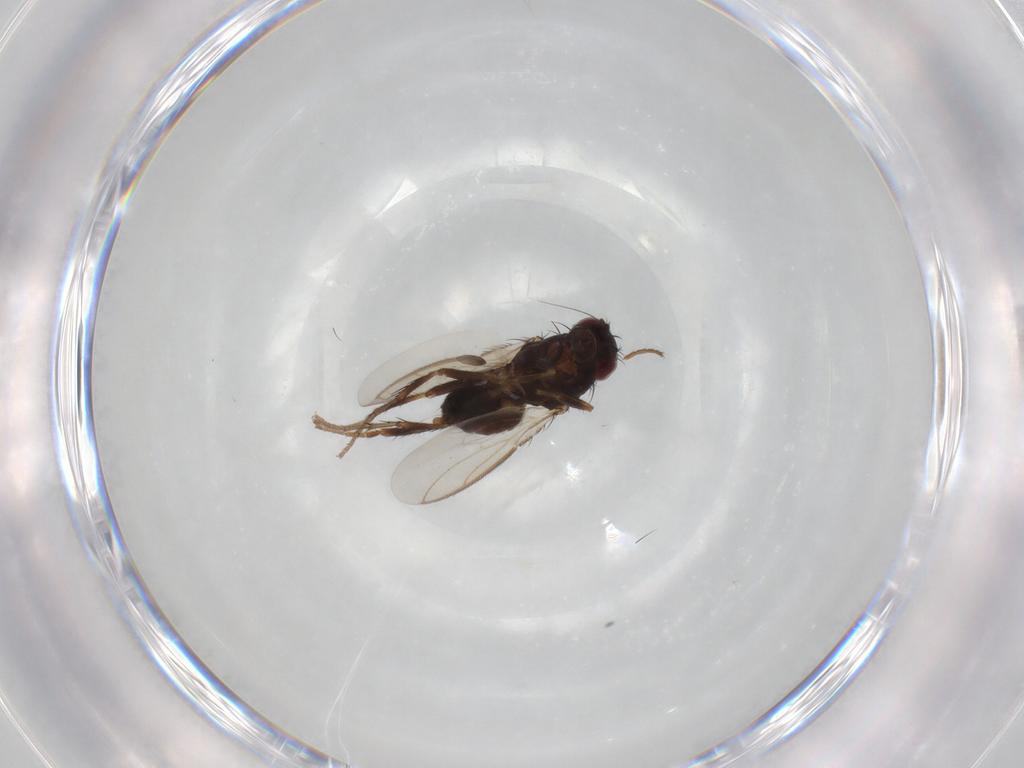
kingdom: Animalia
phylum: Arthropoda
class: Insecta
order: Diptera
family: Sphaeroceridae
